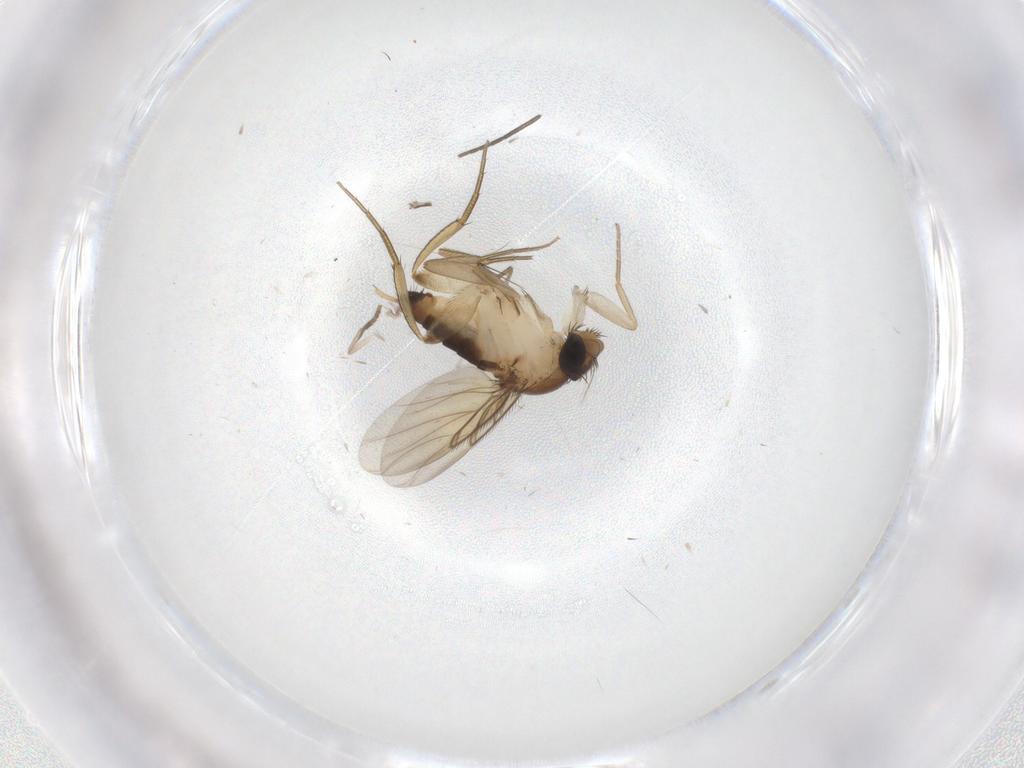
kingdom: Animalia
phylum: Arthropoda
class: Insecta
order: Diptera
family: Phoridae
